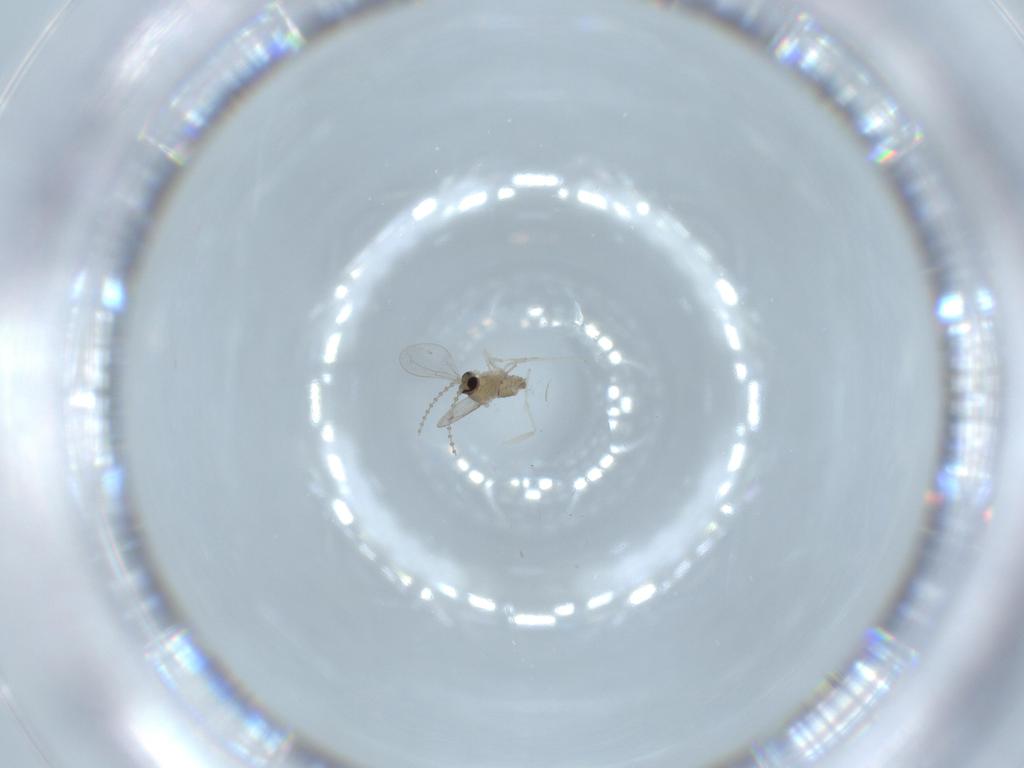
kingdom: Animalia
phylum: Arthropoda
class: Insecta
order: Diptera
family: Cecidomyiidae
